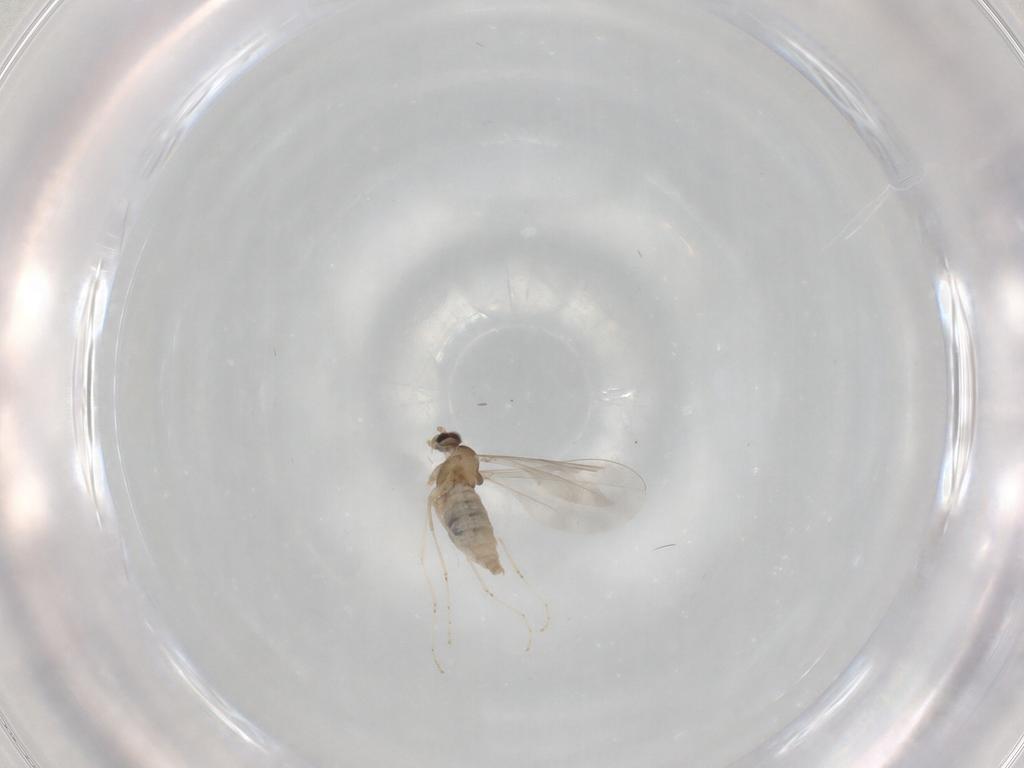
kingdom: Animalia
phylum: Arthropoda
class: Insecta
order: Diptera
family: Cecidomyiidae
